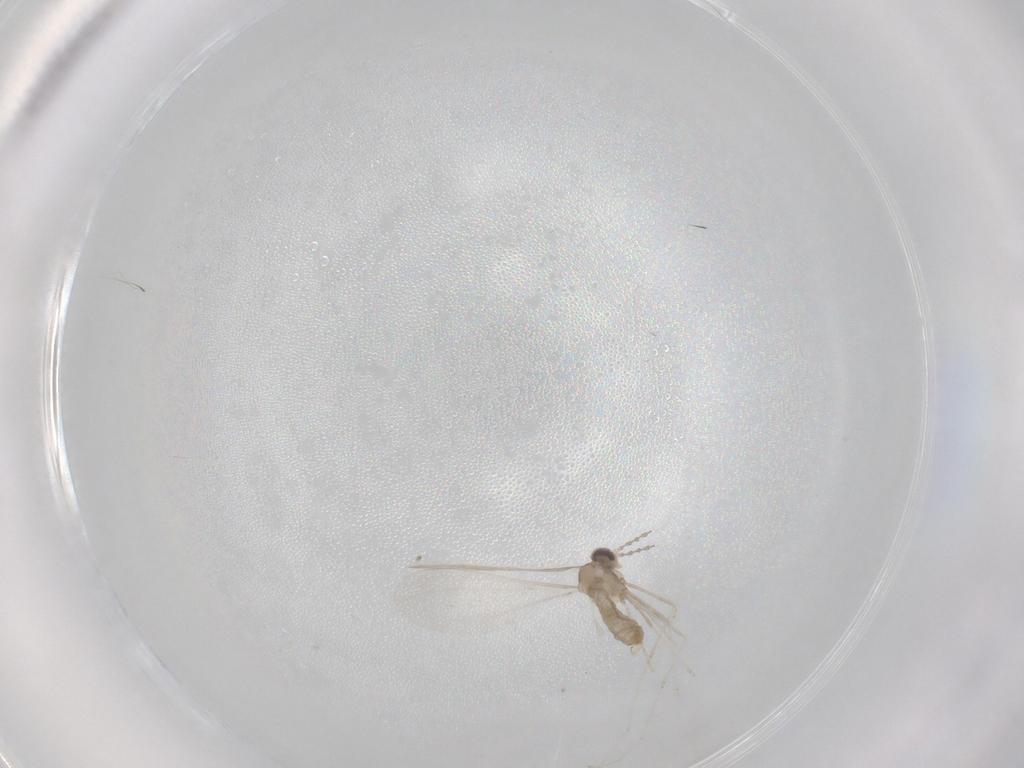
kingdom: Animalia
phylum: Arthropoda
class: Insecta
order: Diptera
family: Cecidomyiidae
